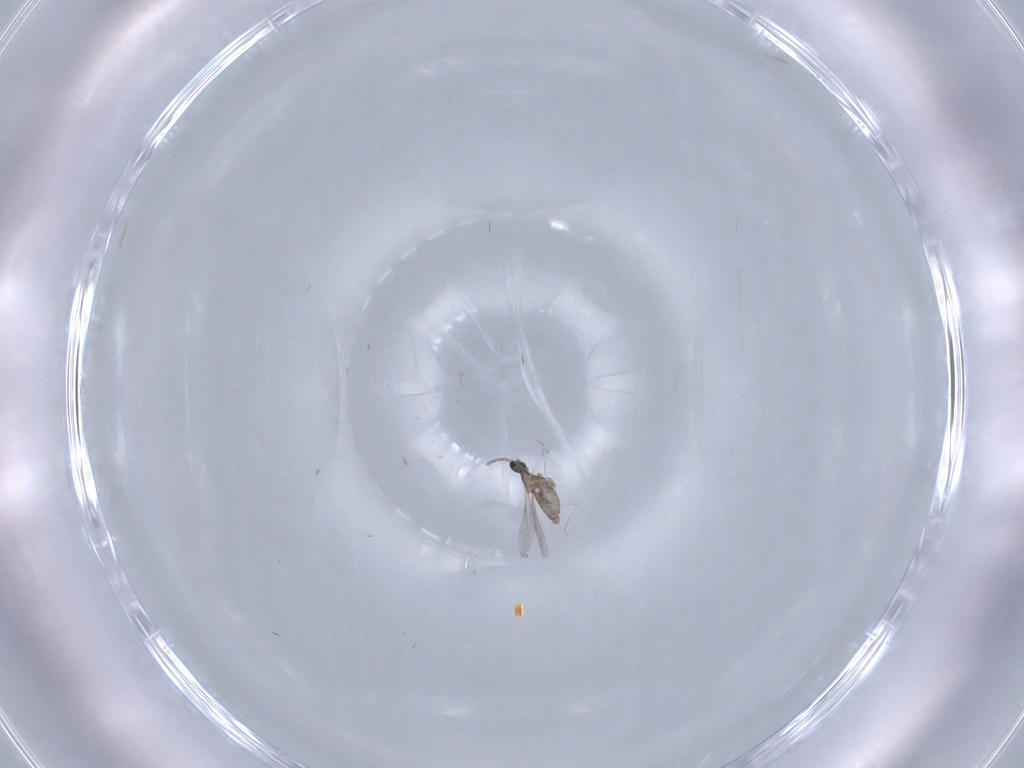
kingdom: Animalia
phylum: Arthropoda
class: Insecta
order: Diptera
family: Cecidomyiidae
